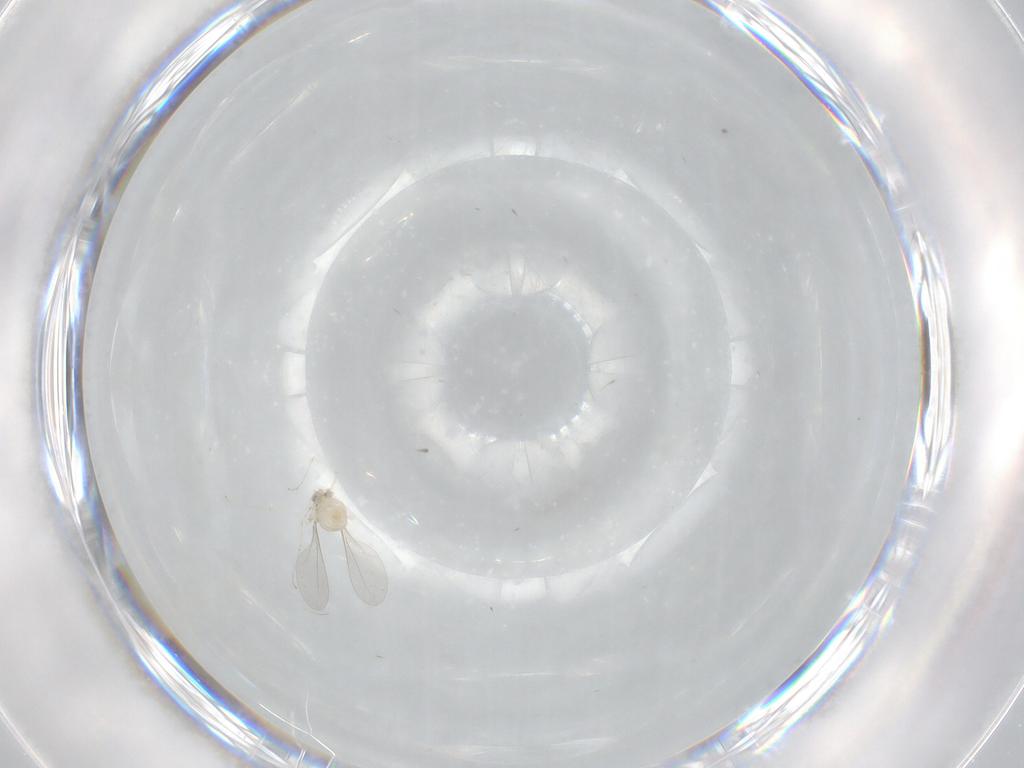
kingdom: Animalia
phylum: Arthropoda
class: Insecta
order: Diptera
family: Cecidomyiidae
